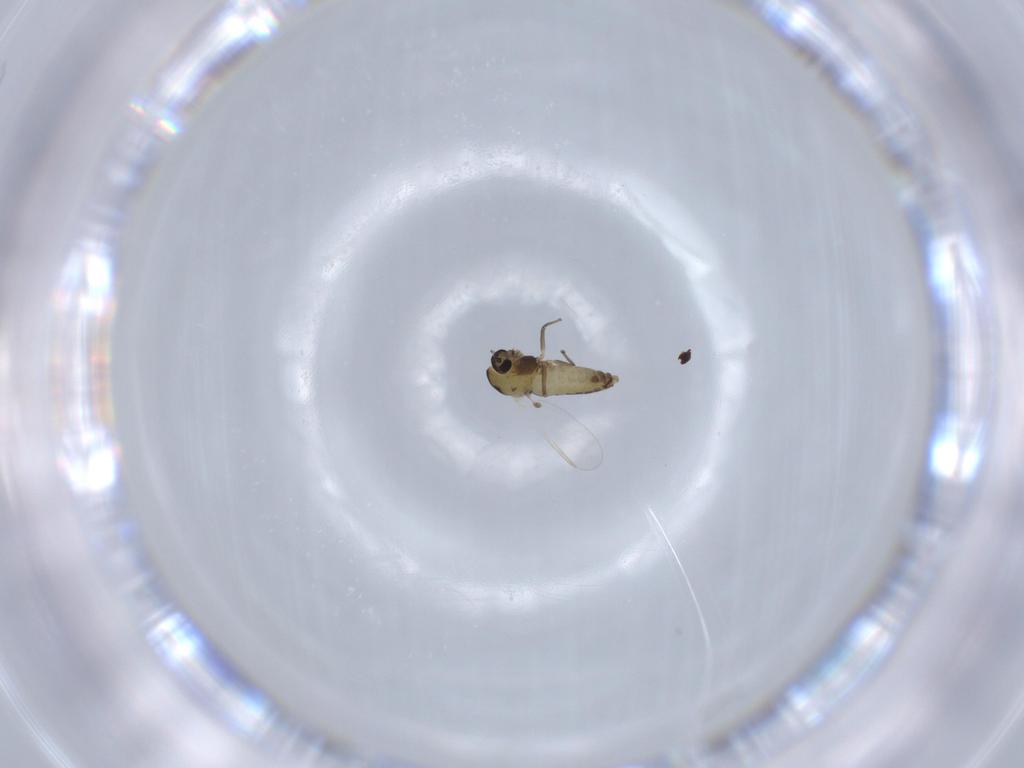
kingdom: Animalia
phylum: Arthropoda
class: Insecta
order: Diptera
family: Chironomidae
